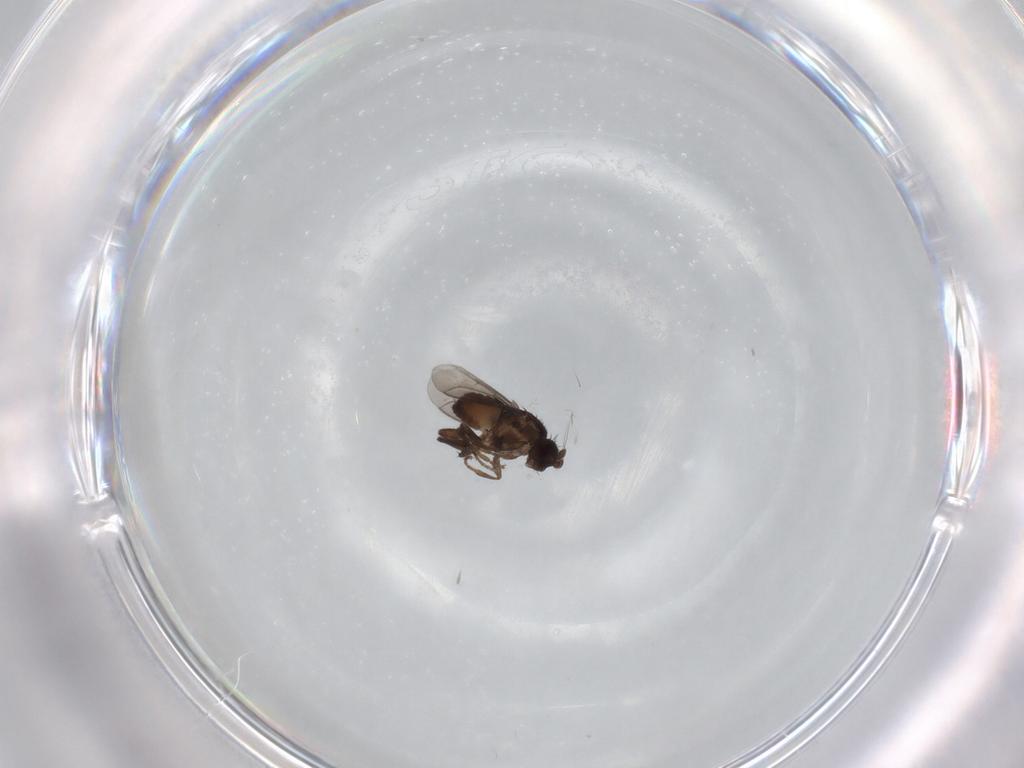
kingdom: Animalia
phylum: Arthropoda
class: Insecta
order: Diptera
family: Sphaeroceridae
